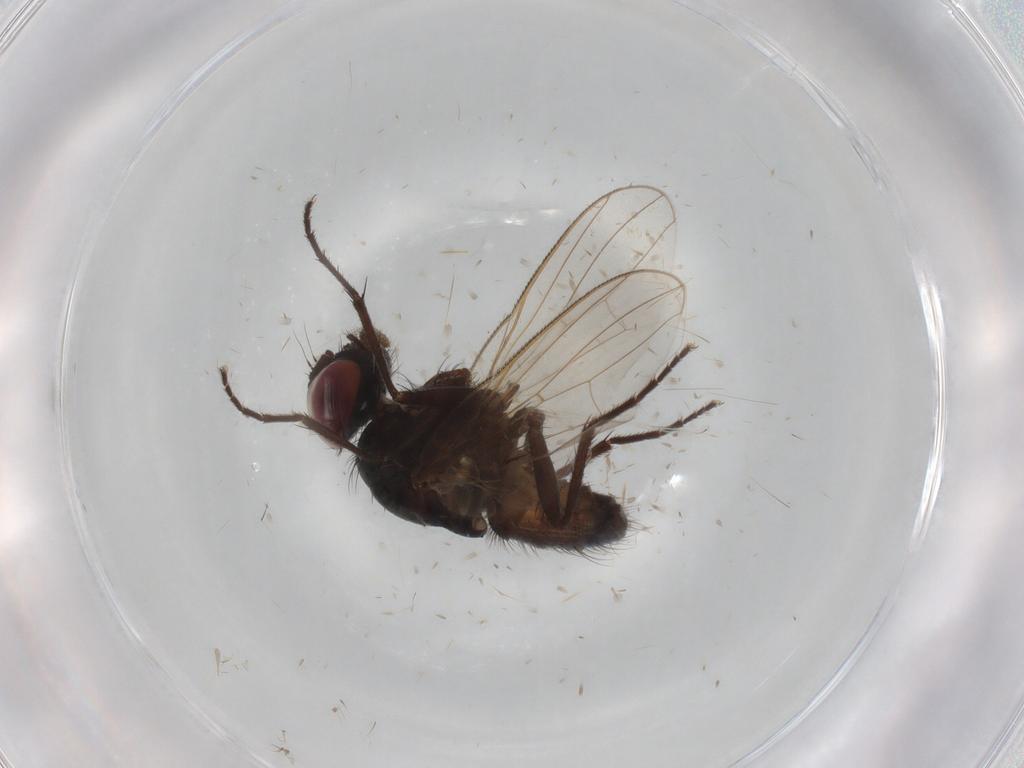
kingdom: Animalia
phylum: Arthropoda
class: Insecta
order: Diptera
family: Muscidae
